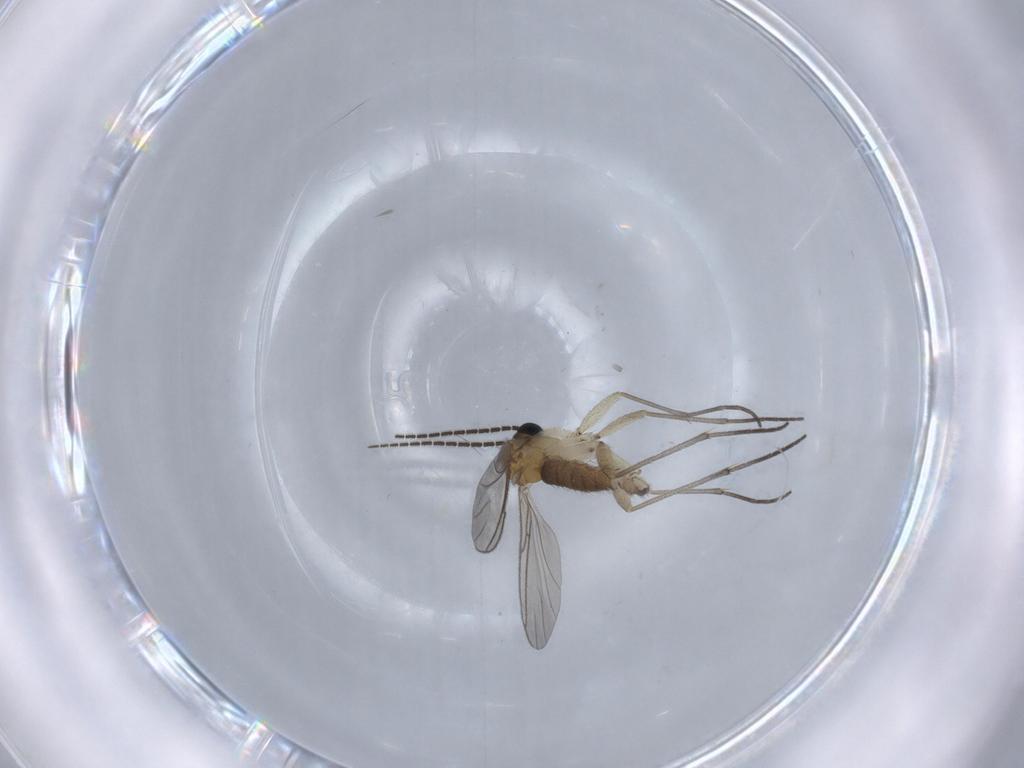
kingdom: Animalia
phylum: Arthropoda
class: Insecta
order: Diptera
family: Sciaridae
